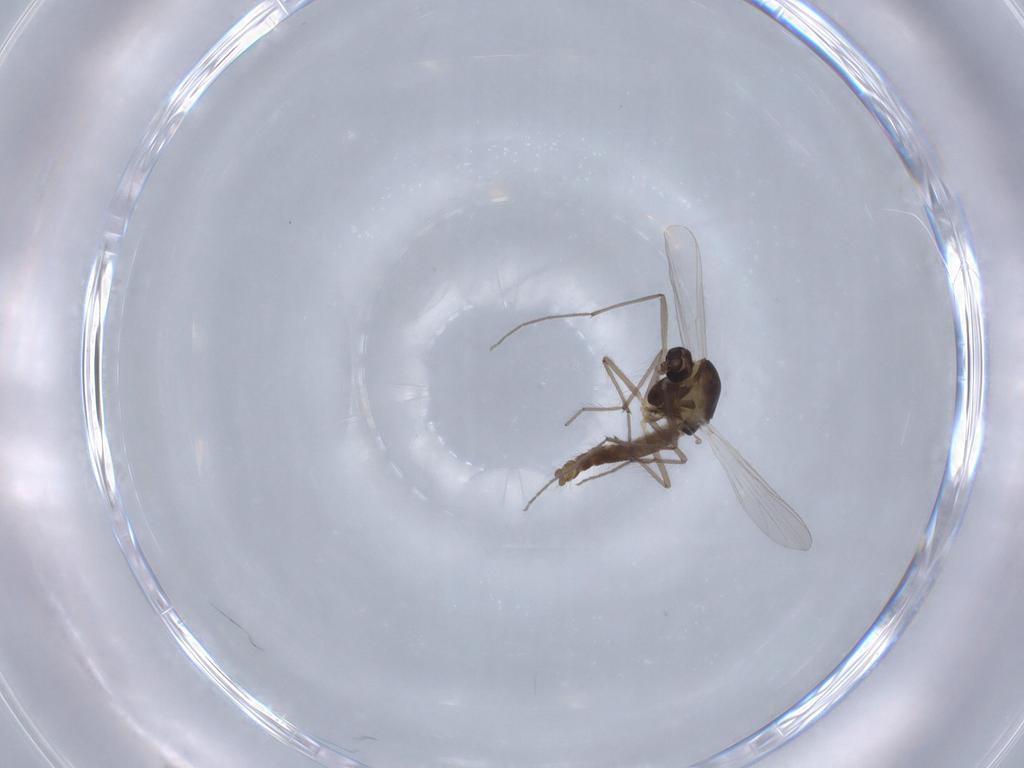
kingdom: Animalia
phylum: Arthropoda
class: Insecta
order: Diptera
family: Chironomidae
